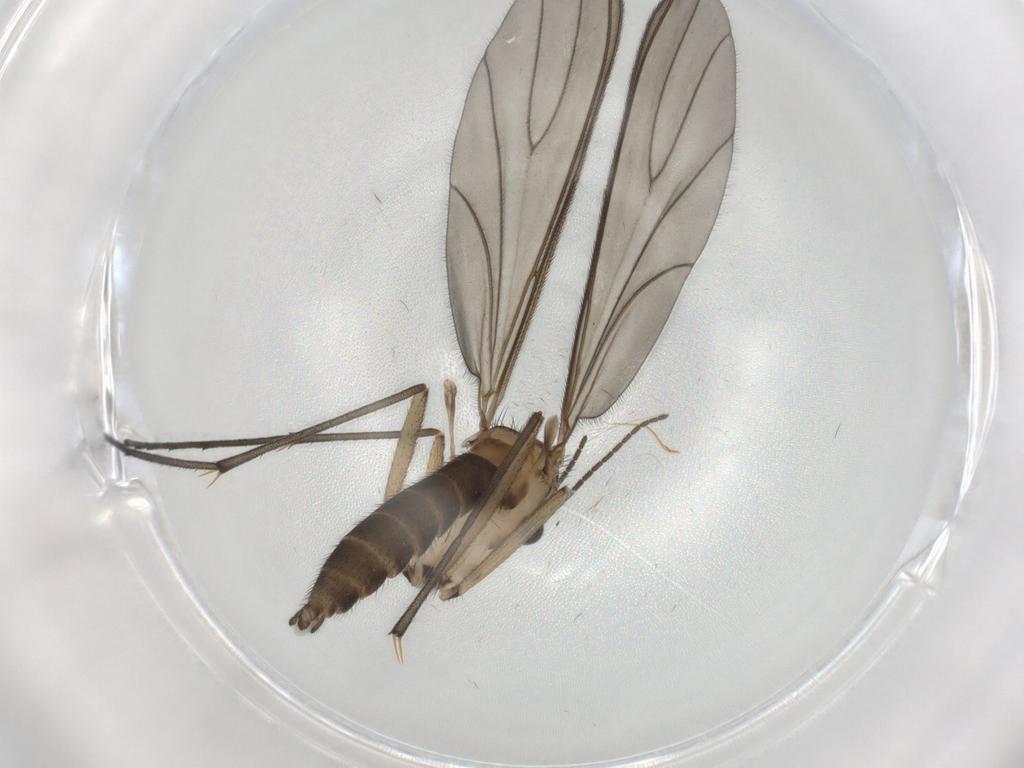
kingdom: Animalia
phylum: Arthropoda
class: Insecta
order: Diptera
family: Sciaridae
